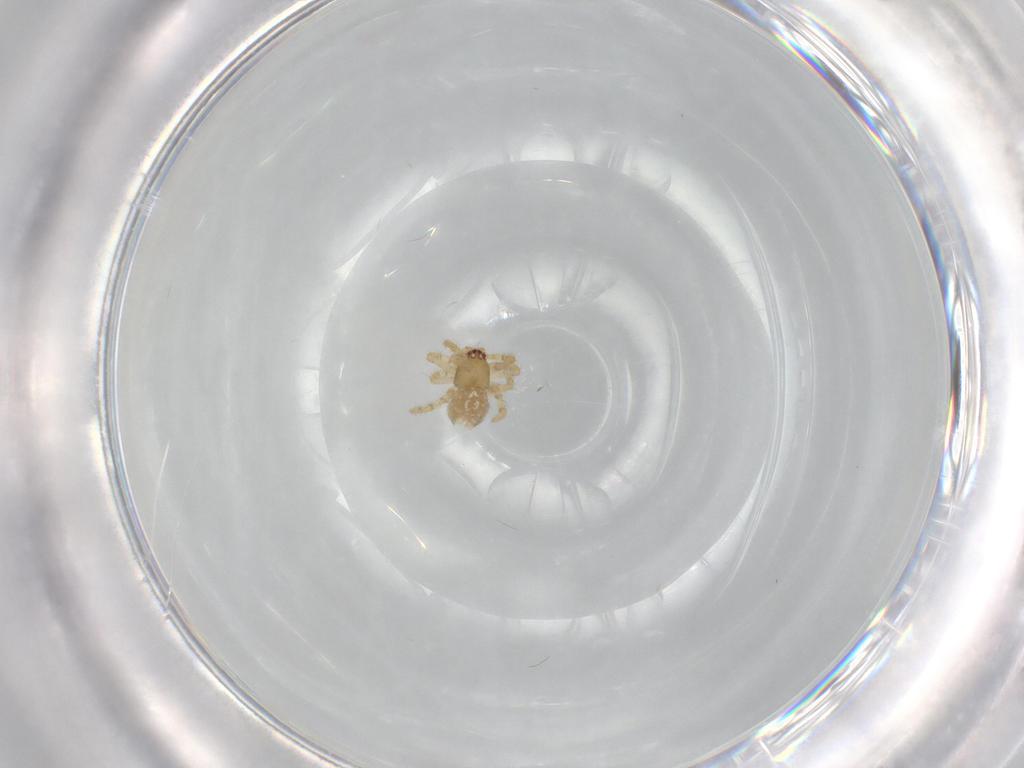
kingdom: Animalia
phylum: Arthropoda
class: Arachnida
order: Araneae
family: Theridiidae
